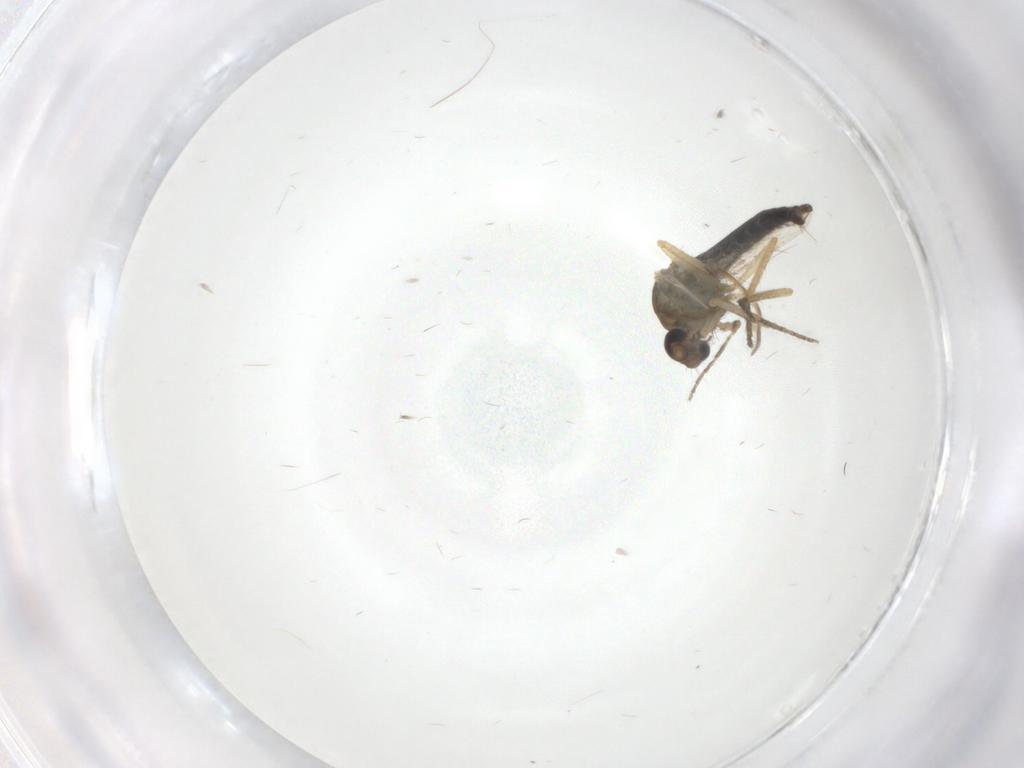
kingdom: Animalia
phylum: Arthropoda
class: Insecta
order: Diptera
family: Ceratopogonidae
